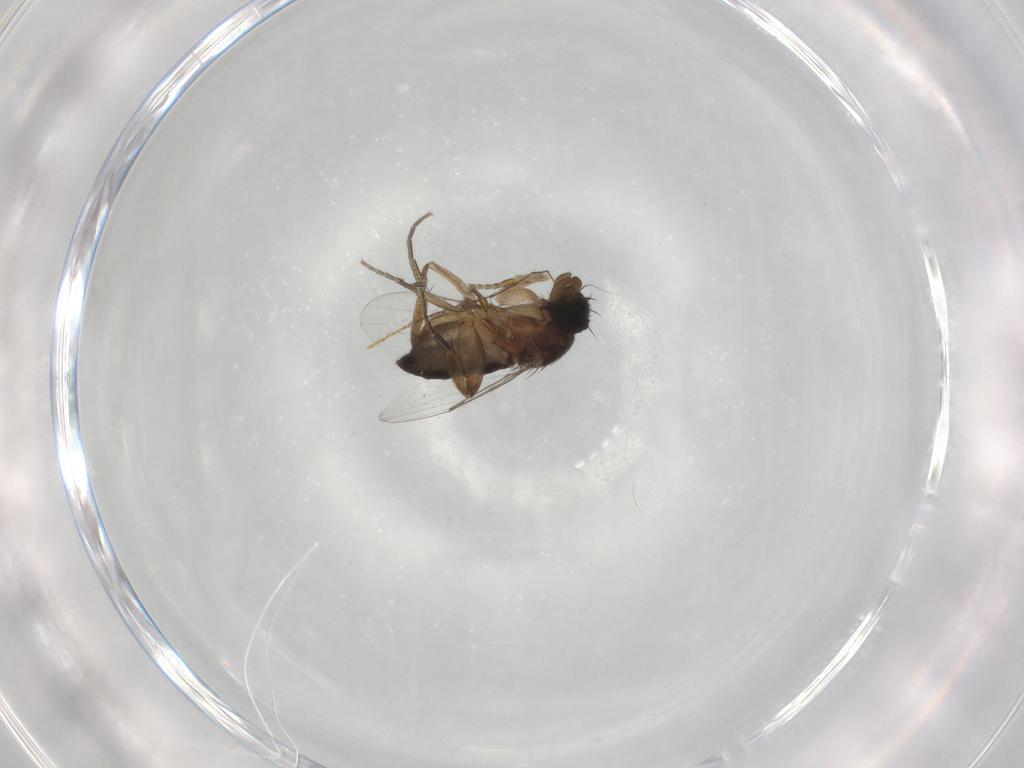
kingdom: Animalia
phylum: Arthropoda
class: Insecta
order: Diptera
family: Phoridae
